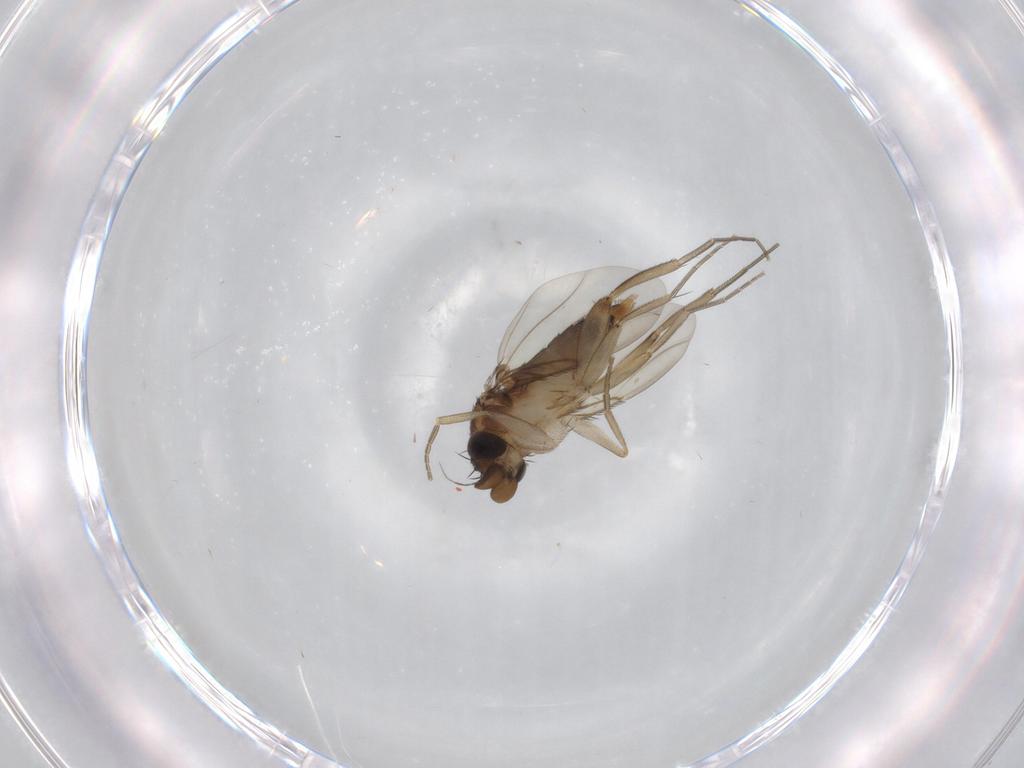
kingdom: Animalia
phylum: Arthropoda
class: Insecta
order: Diptera
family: Phoridae
